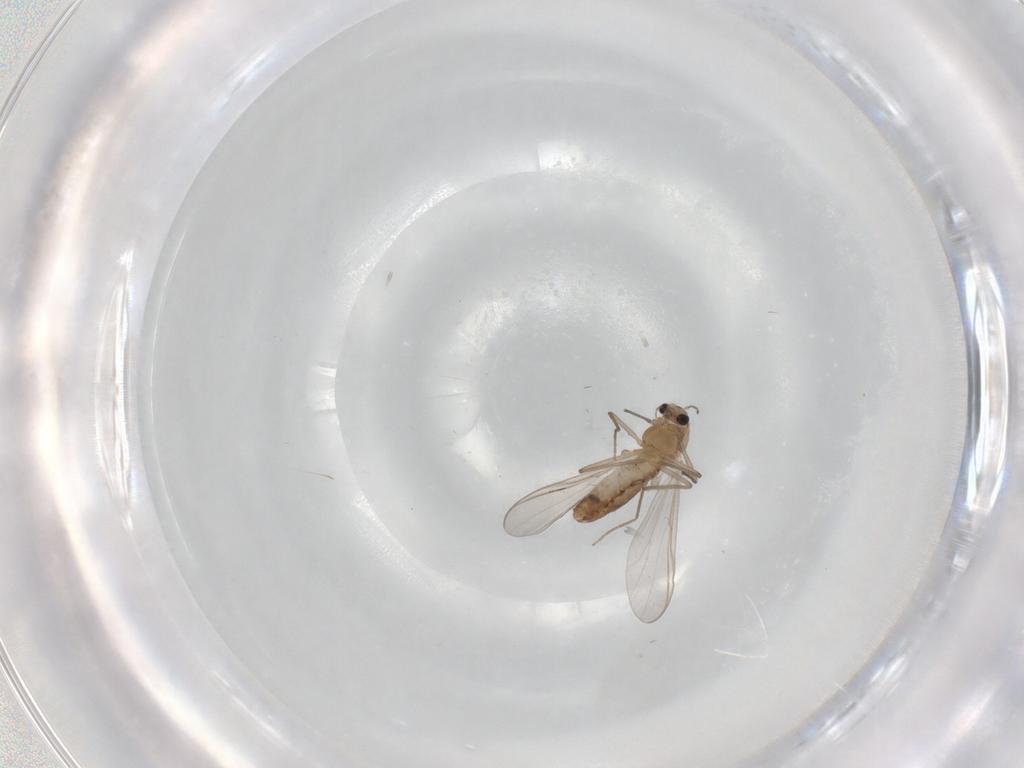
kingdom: Animalia
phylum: Arthropoda
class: Insecta
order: Diptera
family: Chironomidae
